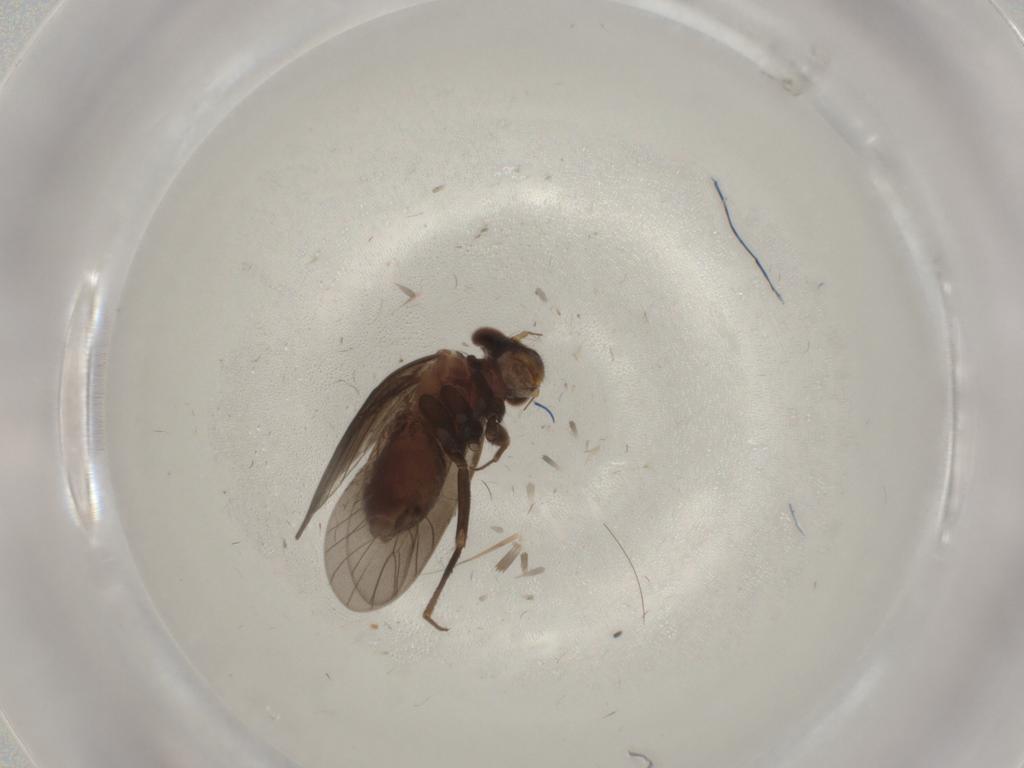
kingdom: Animalia
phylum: Arthropoda
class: Insecta
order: Psocodea
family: Lepidopsocidae
